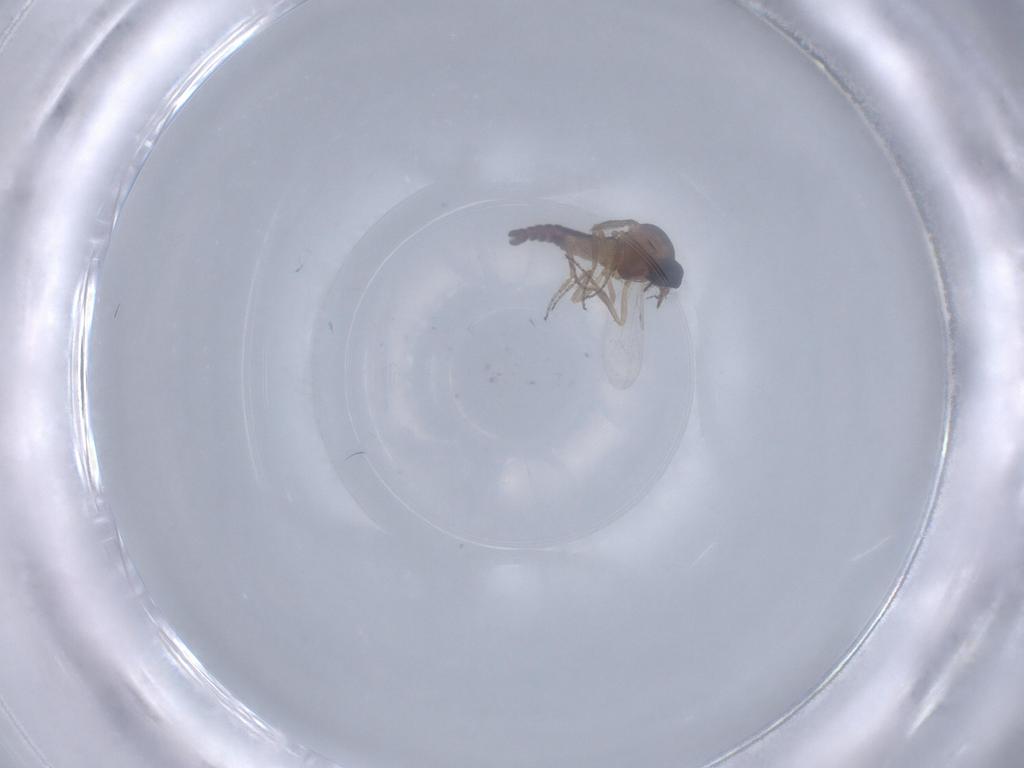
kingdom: Animalia
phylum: Arthropoda
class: Insecta
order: Diptera
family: Ceratopogonidae
